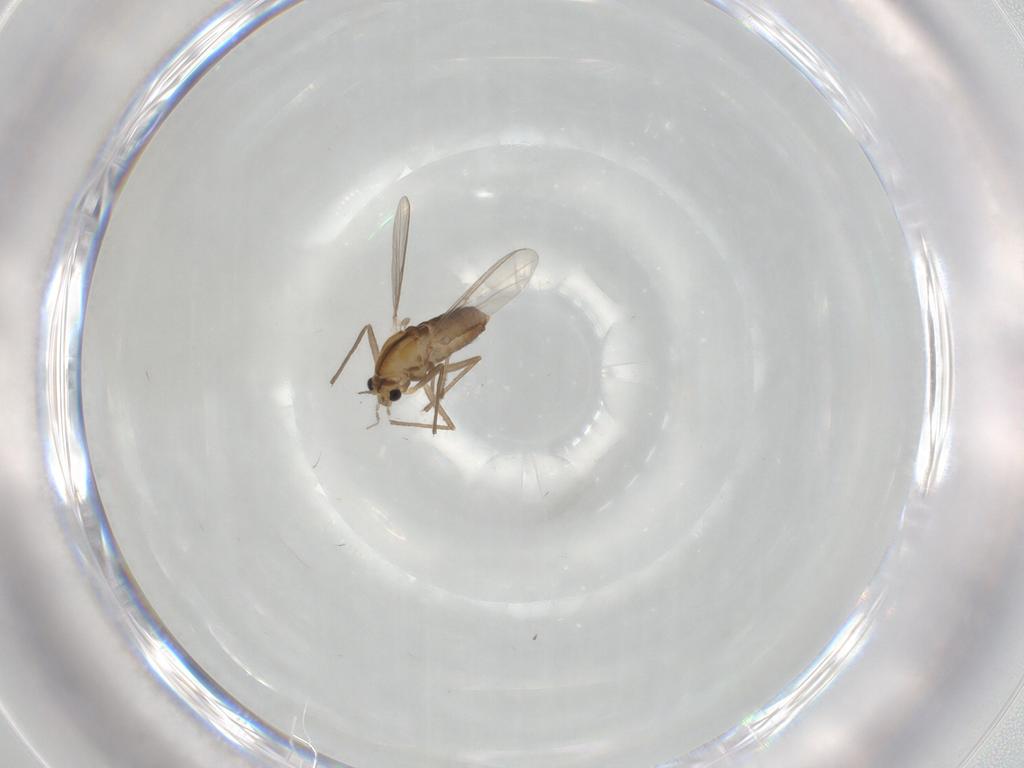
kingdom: Animalia
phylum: Arthropoda
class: Insecta
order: Diptera
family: Chironomidae
